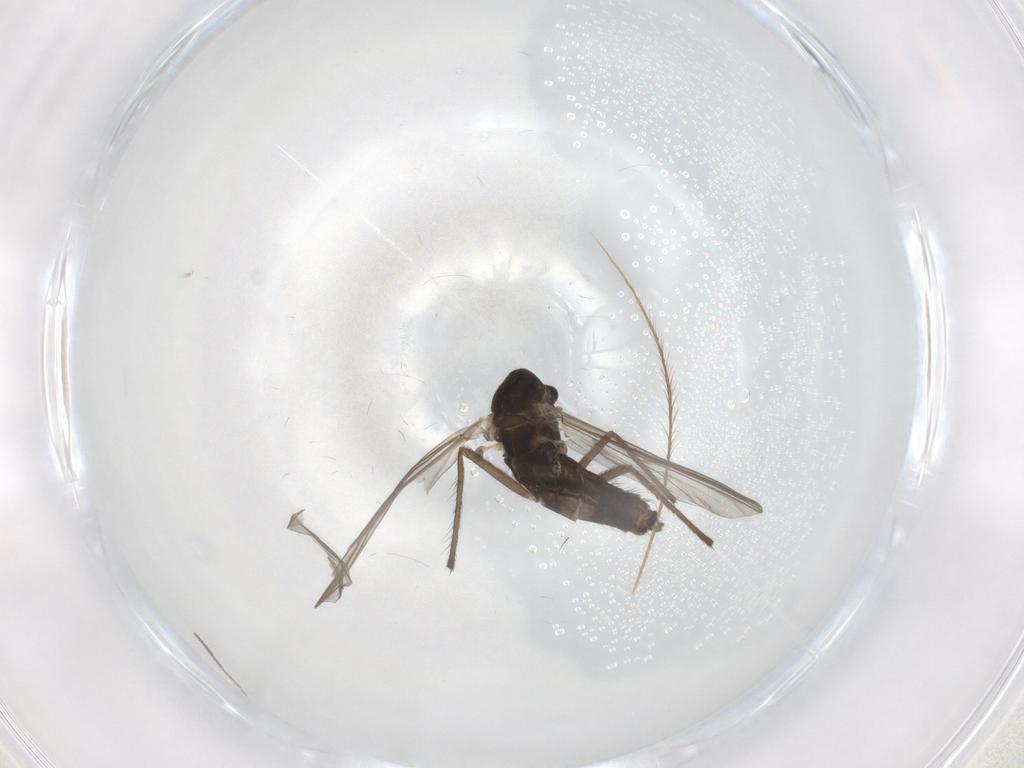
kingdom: Animalia
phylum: Arthropoda
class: Insecta
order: Diptera
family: Chironomidae
